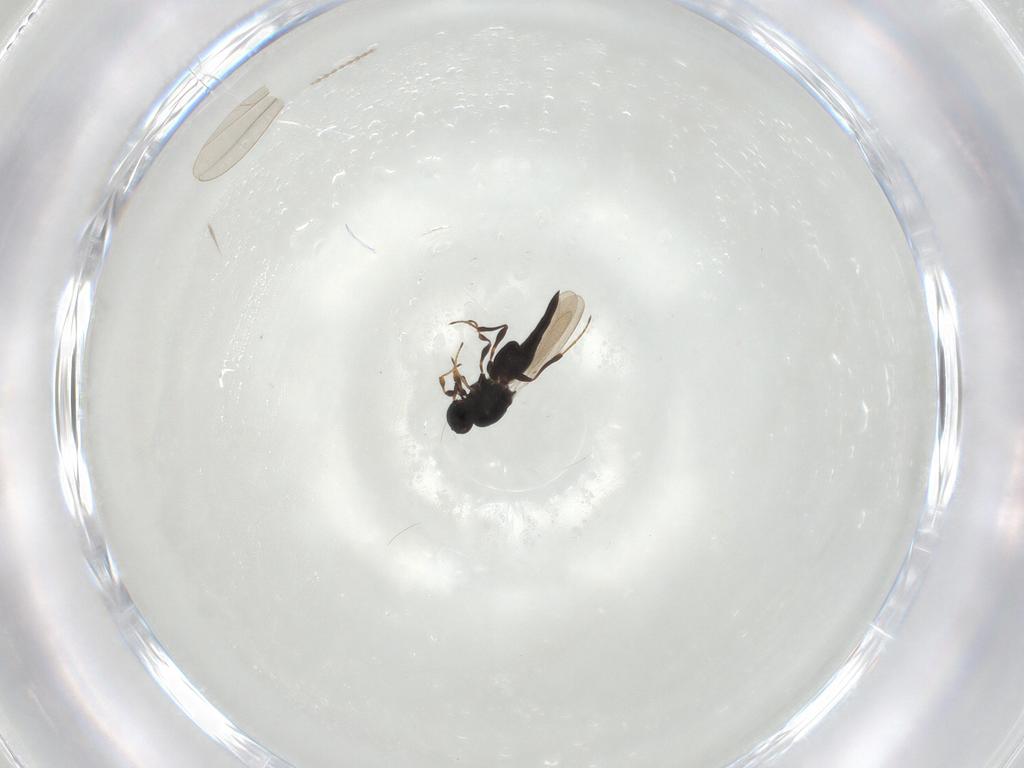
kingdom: Animalia
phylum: Arthropoda
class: Insecta
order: Hymenoptera
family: Platygastridae
